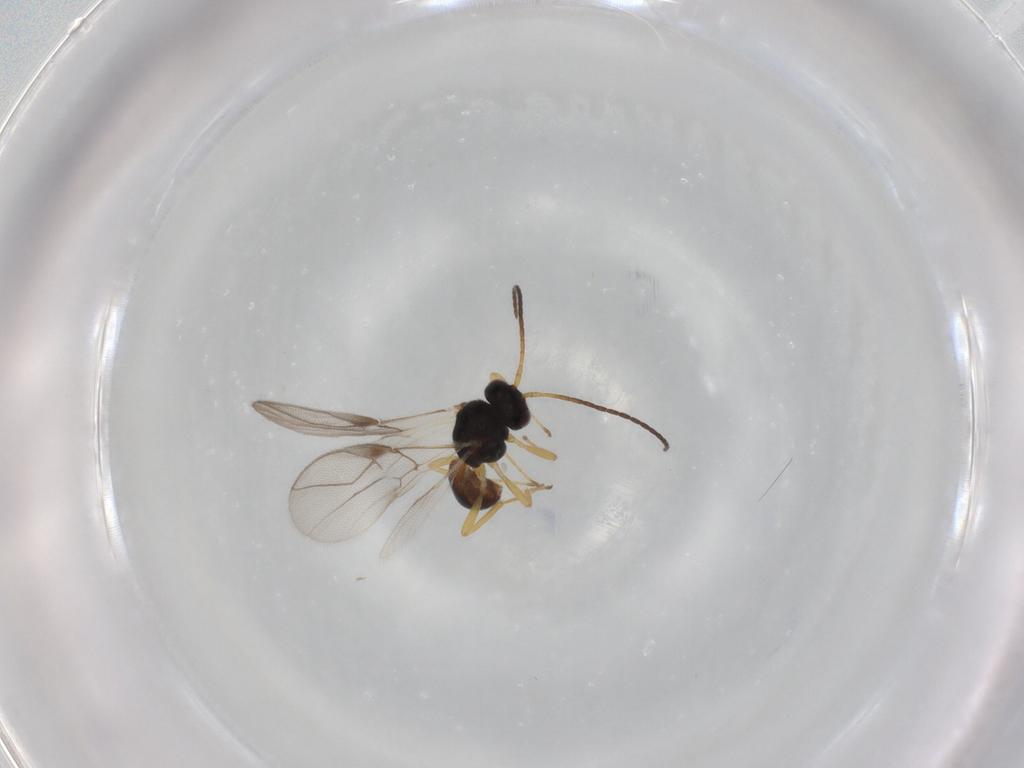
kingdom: Animalia
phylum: Arthropoda
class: Insecta
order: Hymenoptera
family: Braconidae
